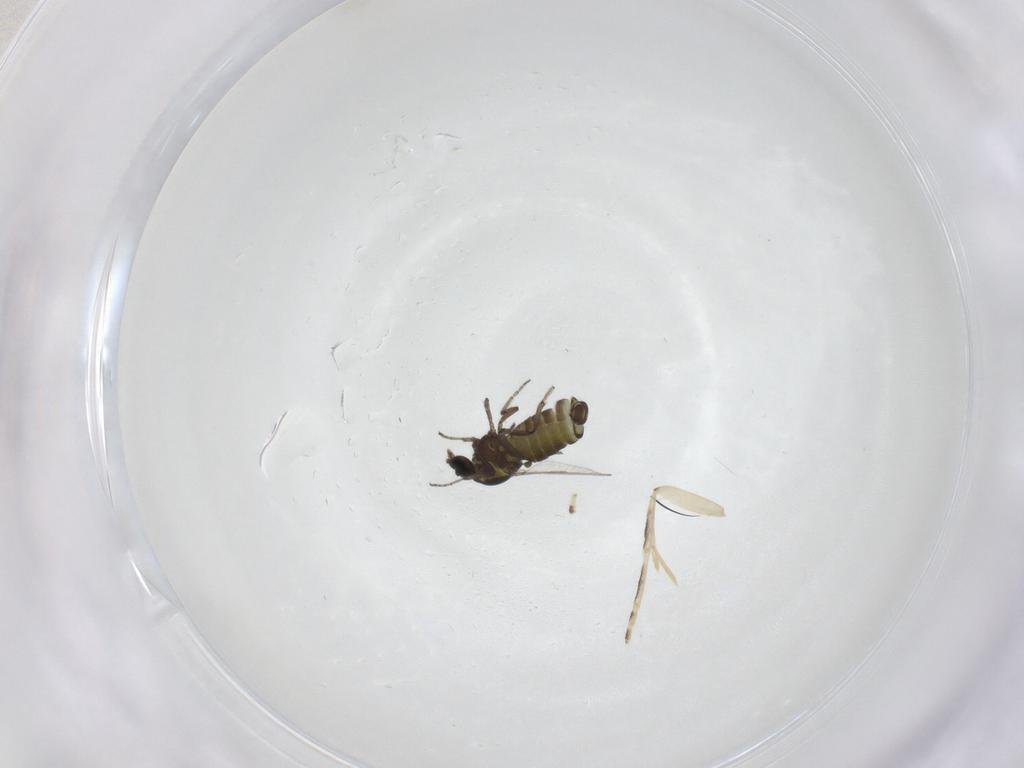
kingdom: Animalia
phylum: Arthropoda
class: Insecta
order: Diptera
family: Ceratopogonidae
